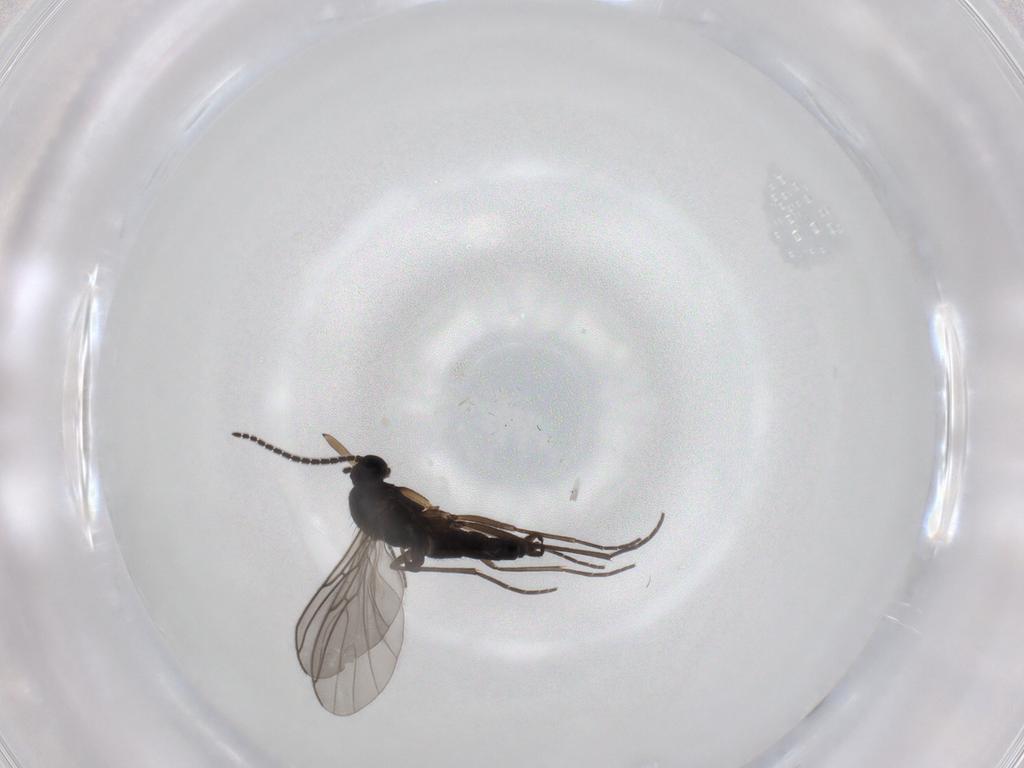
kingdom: Animalia
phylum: Arthropoda
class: Insecta
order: Diptera
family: Sciaridae
